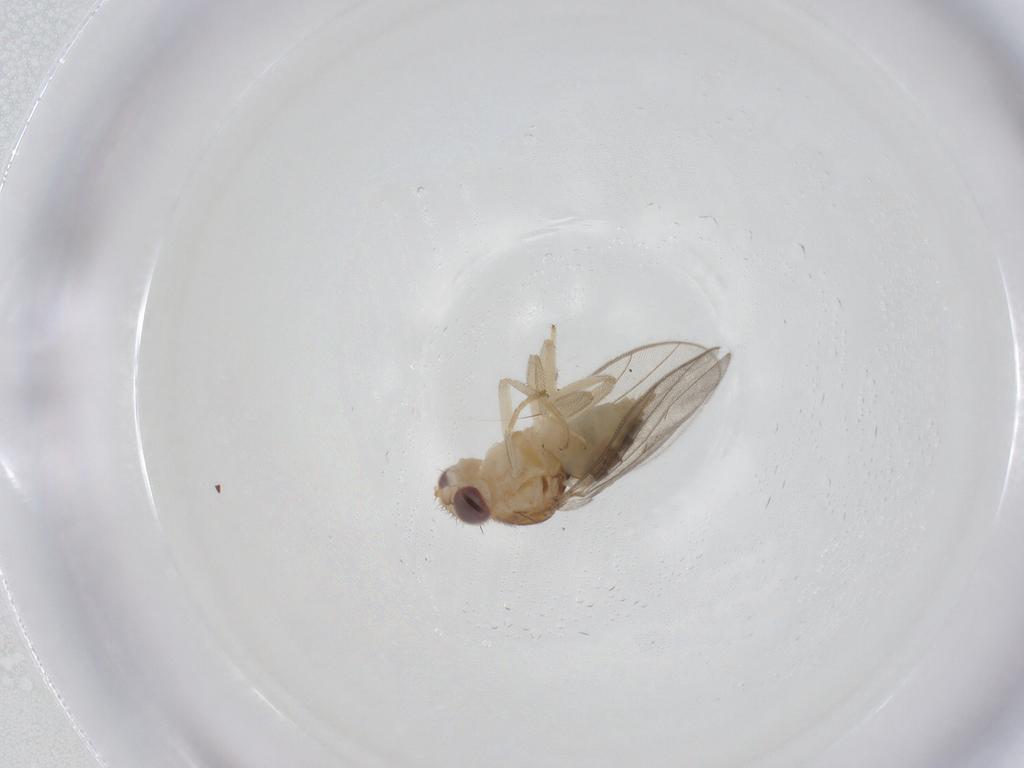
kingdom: Animalia
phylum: Arthropoda
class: Insecta
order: Diptera
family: Chloropidae
